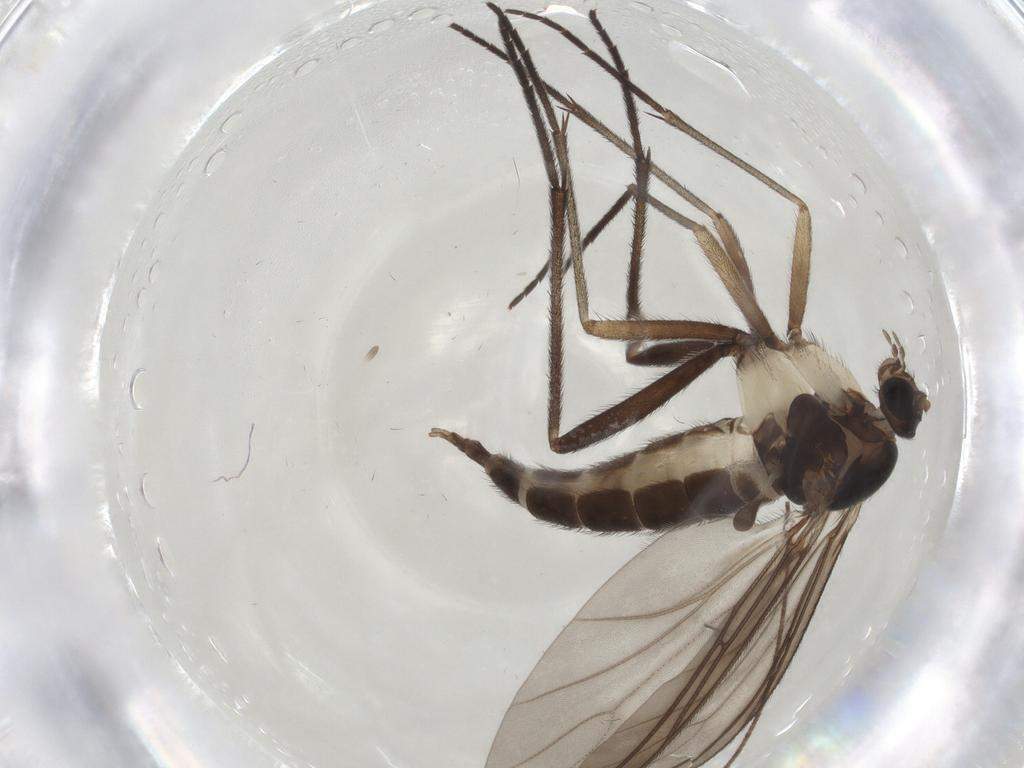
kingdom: Animalia
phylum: Arthropoda
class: Insecta
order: Diptera
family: Sciaridae
